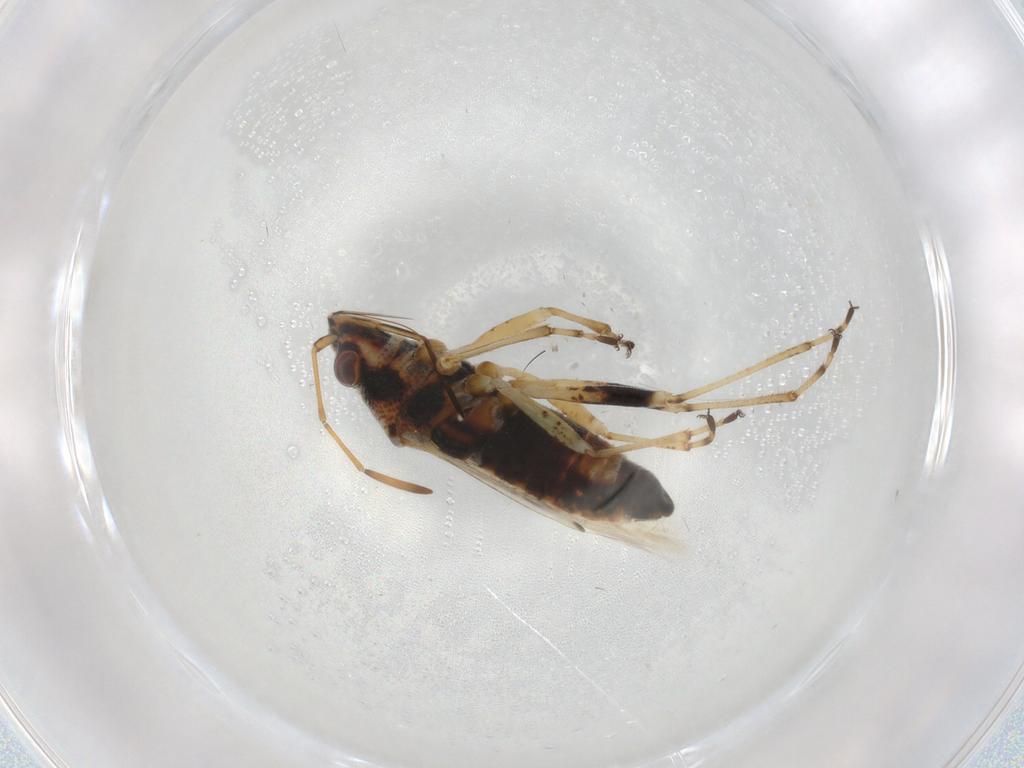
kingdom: Animalia
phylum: Arthropoda
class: Insecta
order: Hemiptera
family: Lygaeidae
